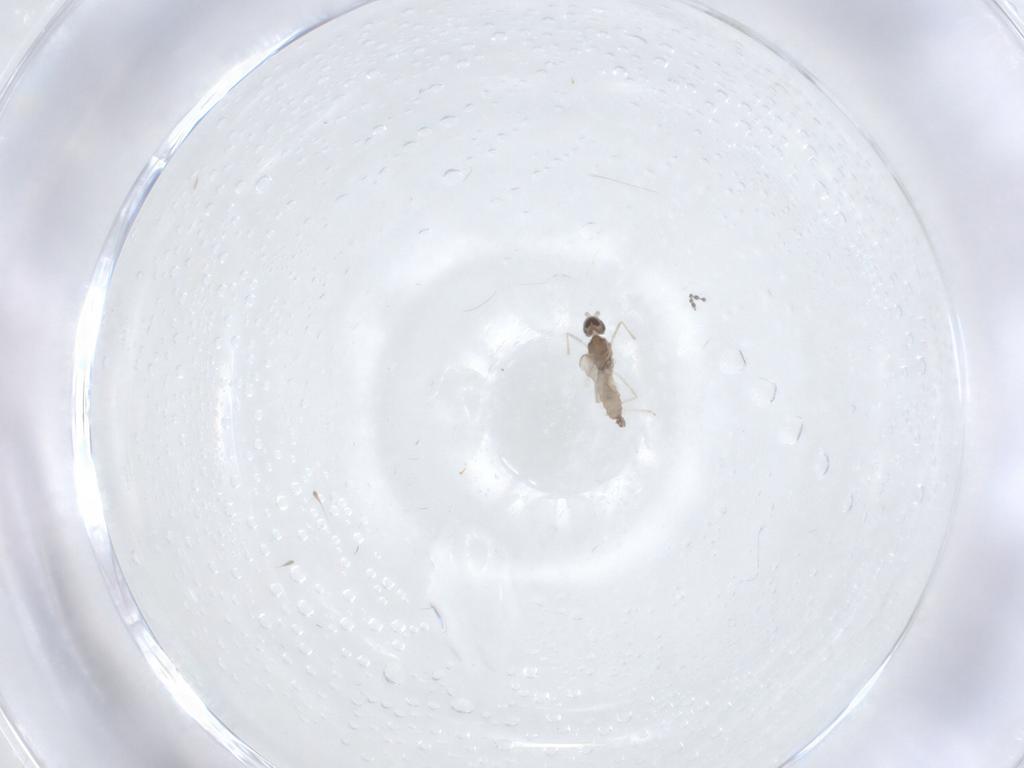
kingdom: Animalia
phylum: Arthropoda
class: Insecta
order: Diptera
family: Cecidomyiidae
